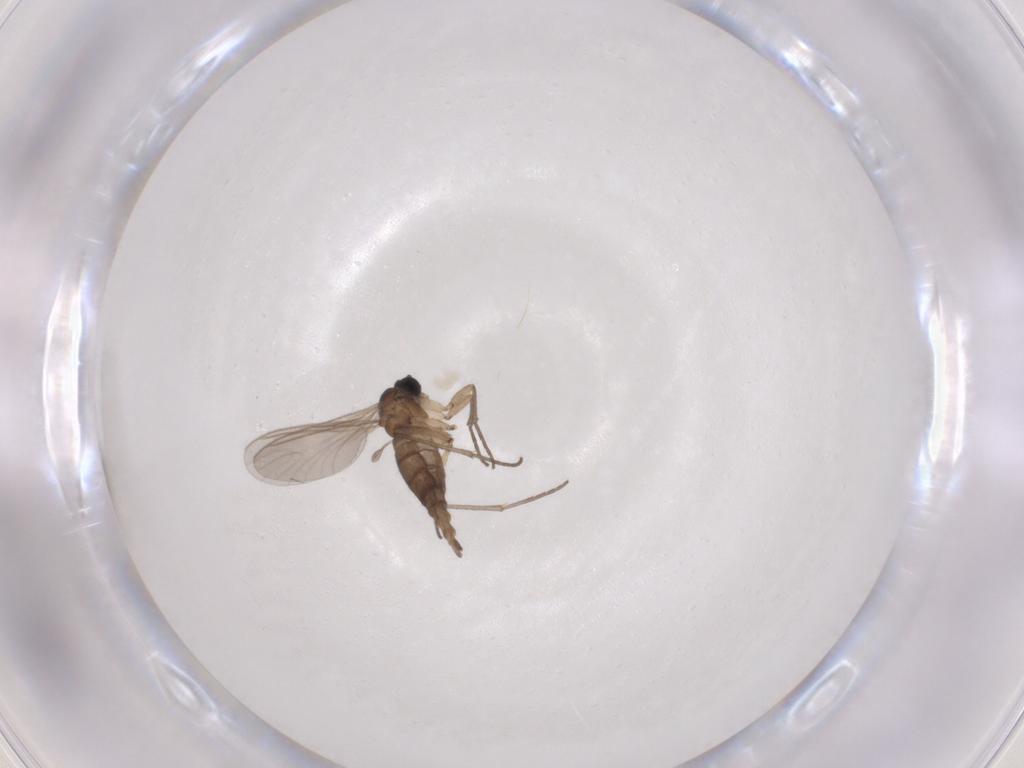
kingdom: Animalia
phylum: Arthropoda
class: Insecta
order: Diptera
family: Sciaridae
